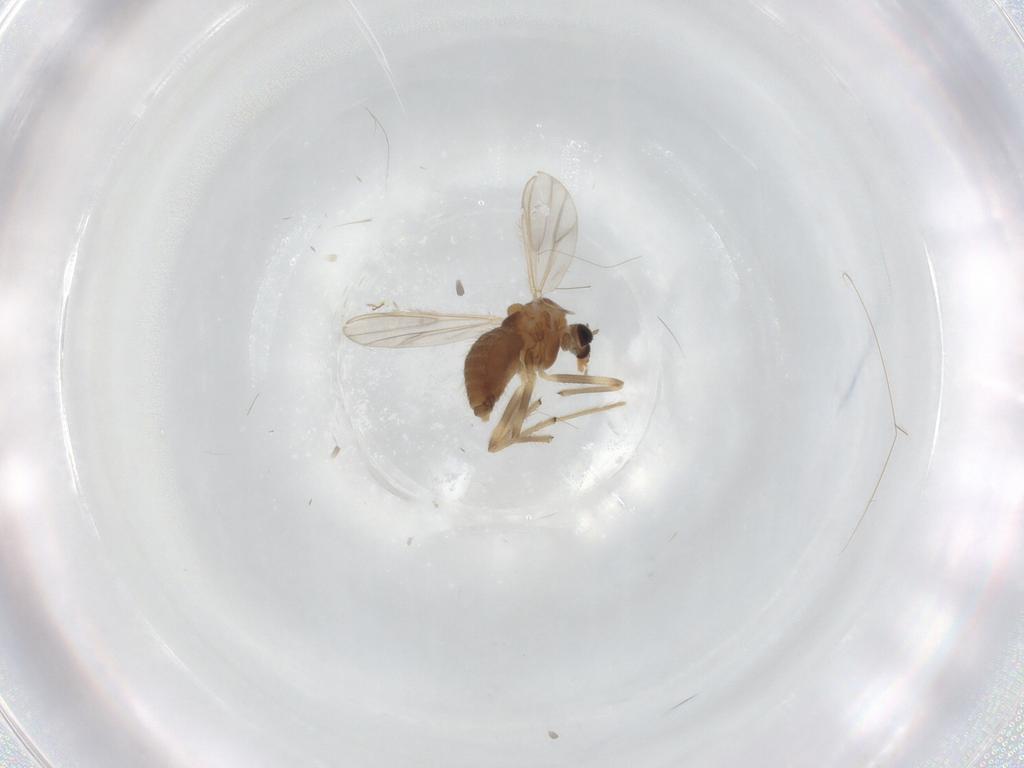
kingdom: Animalia
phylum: Arthropoda
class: Insecta
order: Diptera
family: Chironomidae
